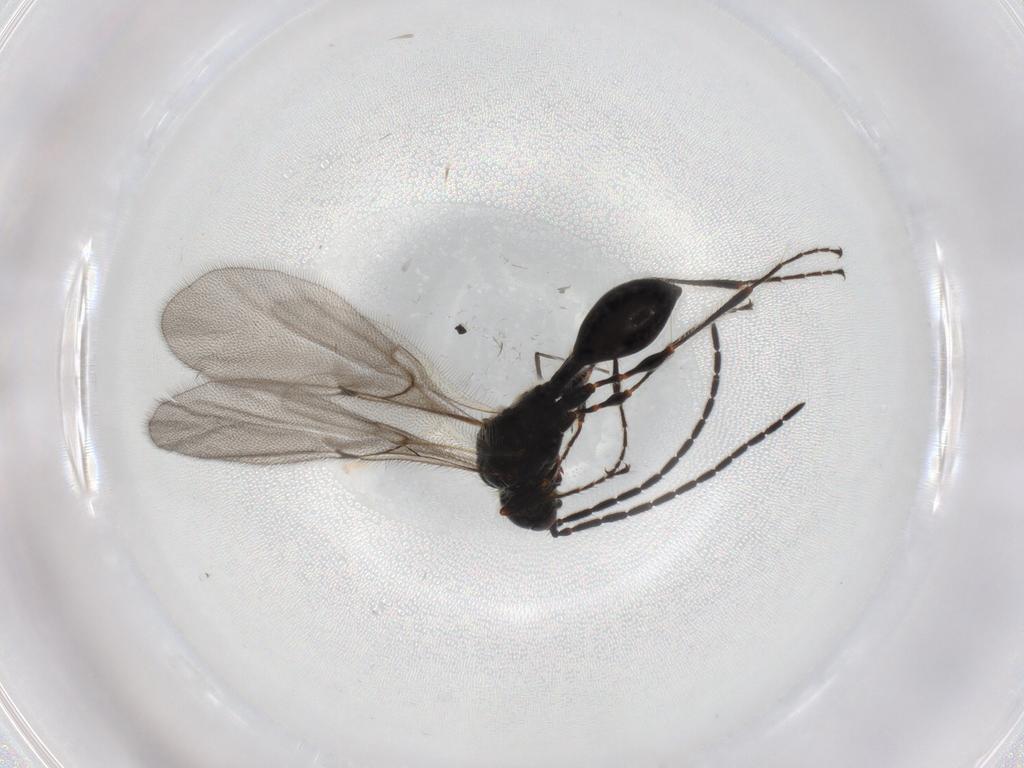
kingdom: Animalia
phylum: Arthropoda
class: Insecta
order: Hymenoptera
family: Diapriidae
